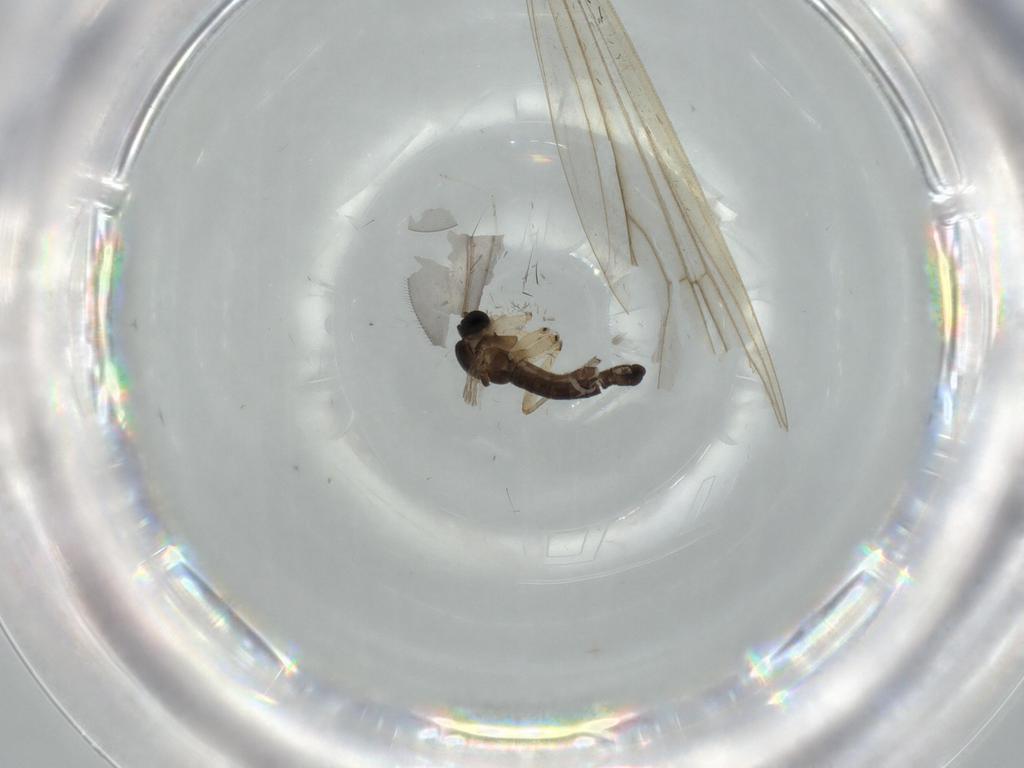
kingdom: Animalia
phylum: Arthropoda
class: Insecta
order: Diptera
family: Sciaridae
